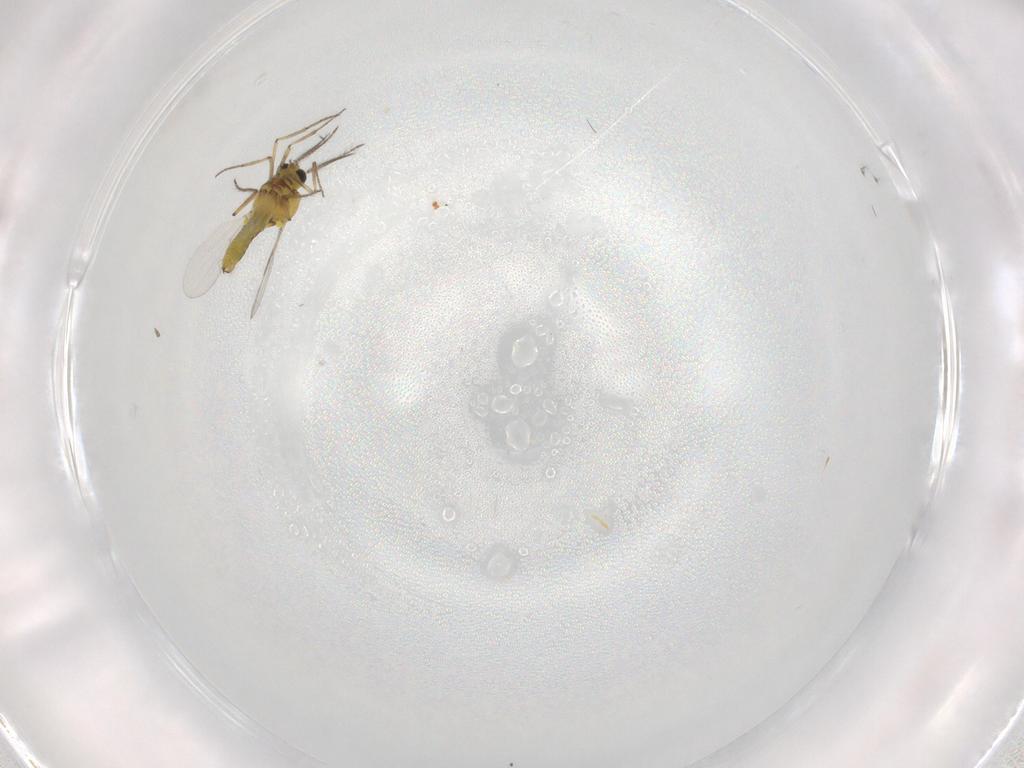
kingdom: Animalia
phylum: Arthropoda
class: Insecta
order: Diptera
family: Ceratopogonidae
